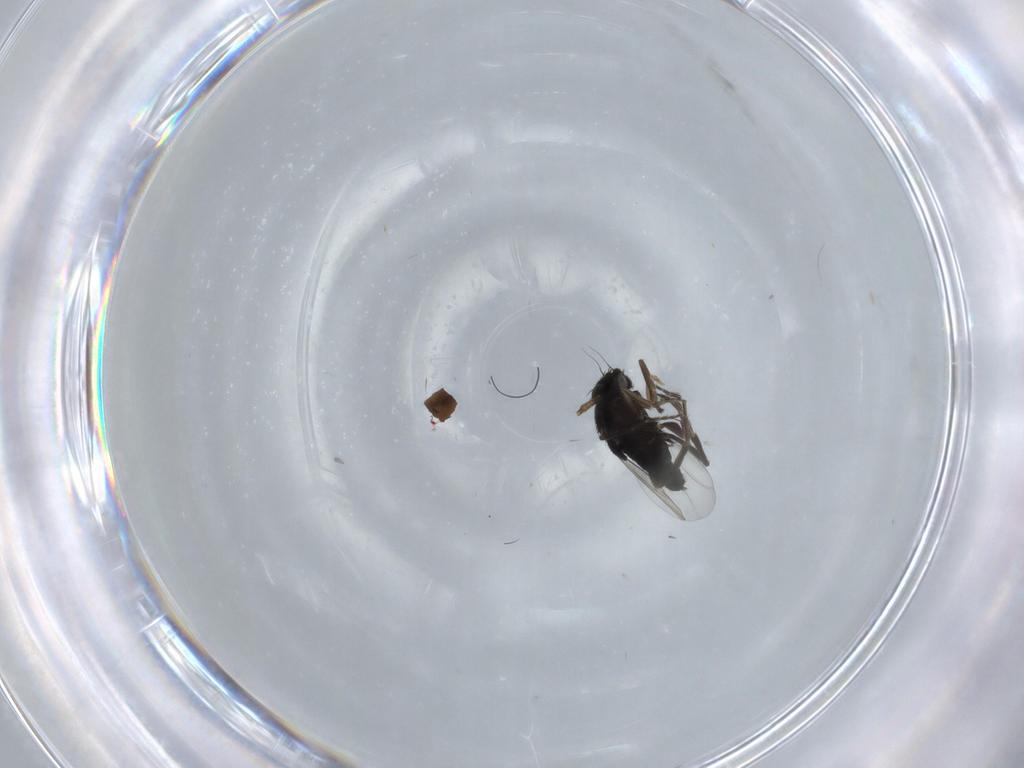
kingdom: Animalia
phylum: Arthropoda
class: Insecta
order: Diptera
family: Phoridae
